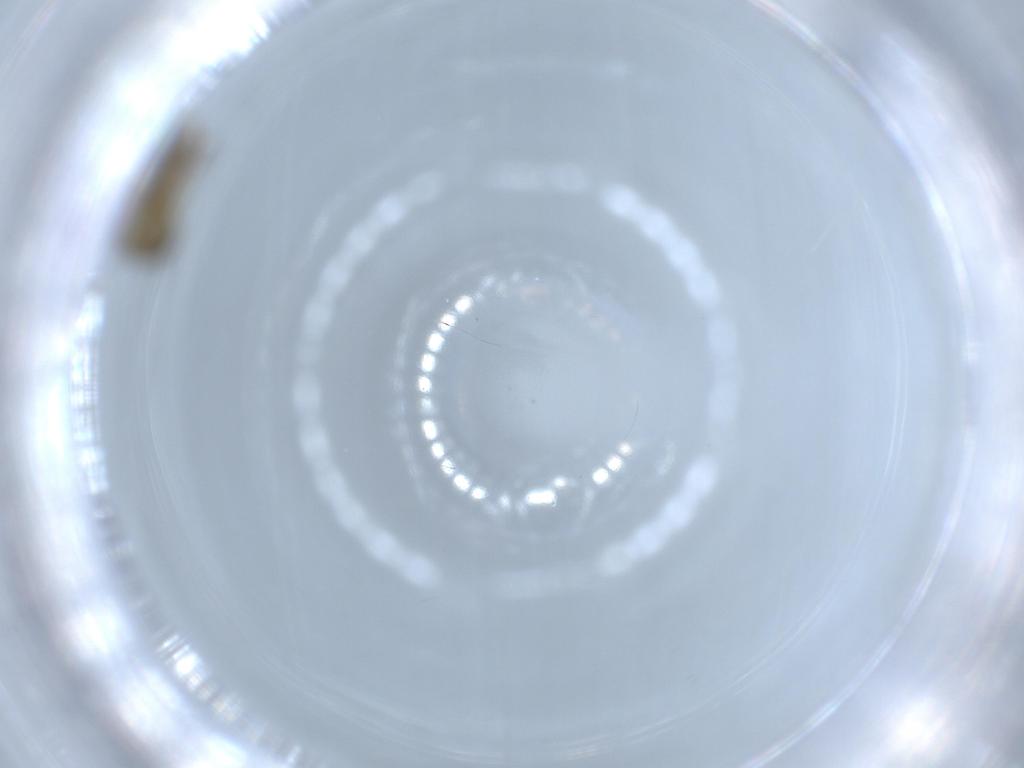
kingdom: Animalia
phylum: Arthropoda
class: Insecta
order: Diptera
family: Chironomidae
